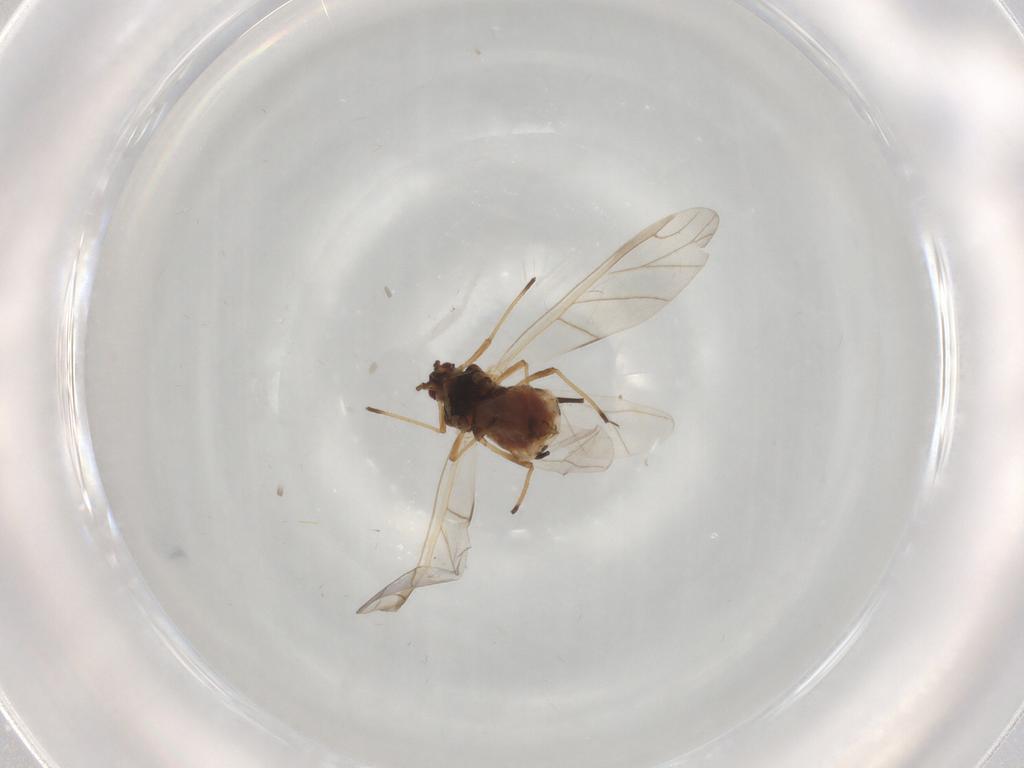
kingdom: Animalia
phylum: Arthropoda
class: Insecta
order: Hemiptera
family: Aphididae
